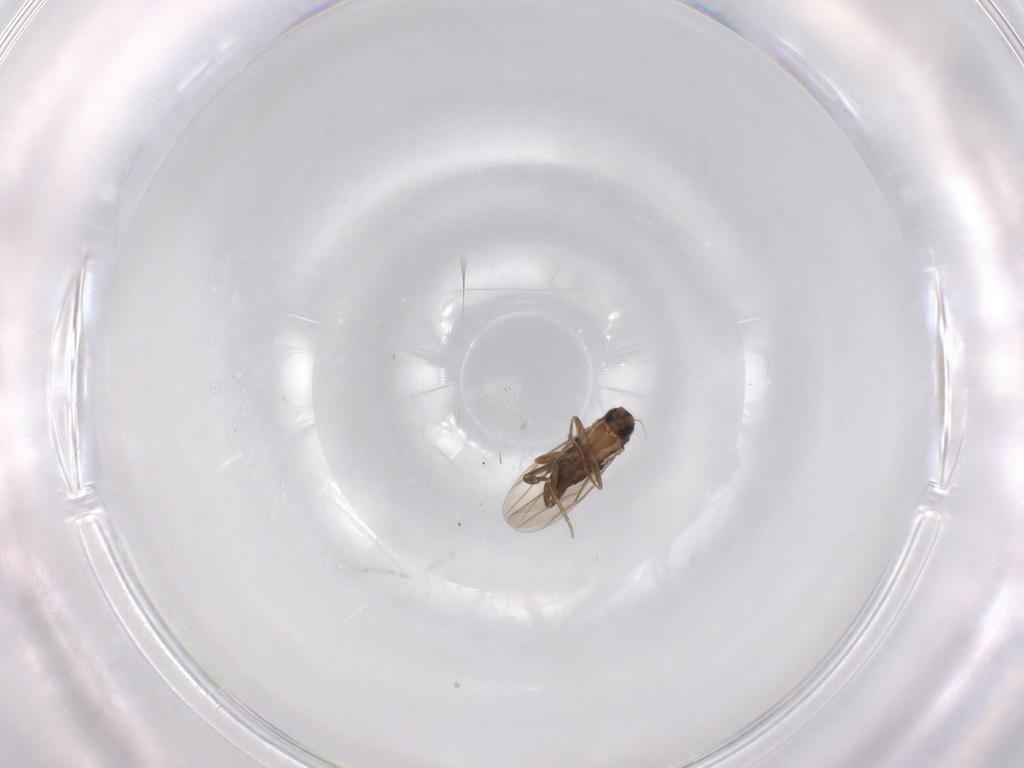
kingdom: Animalia
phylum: Arthropoda
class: Insecta
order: Diptera
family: Phoridae
